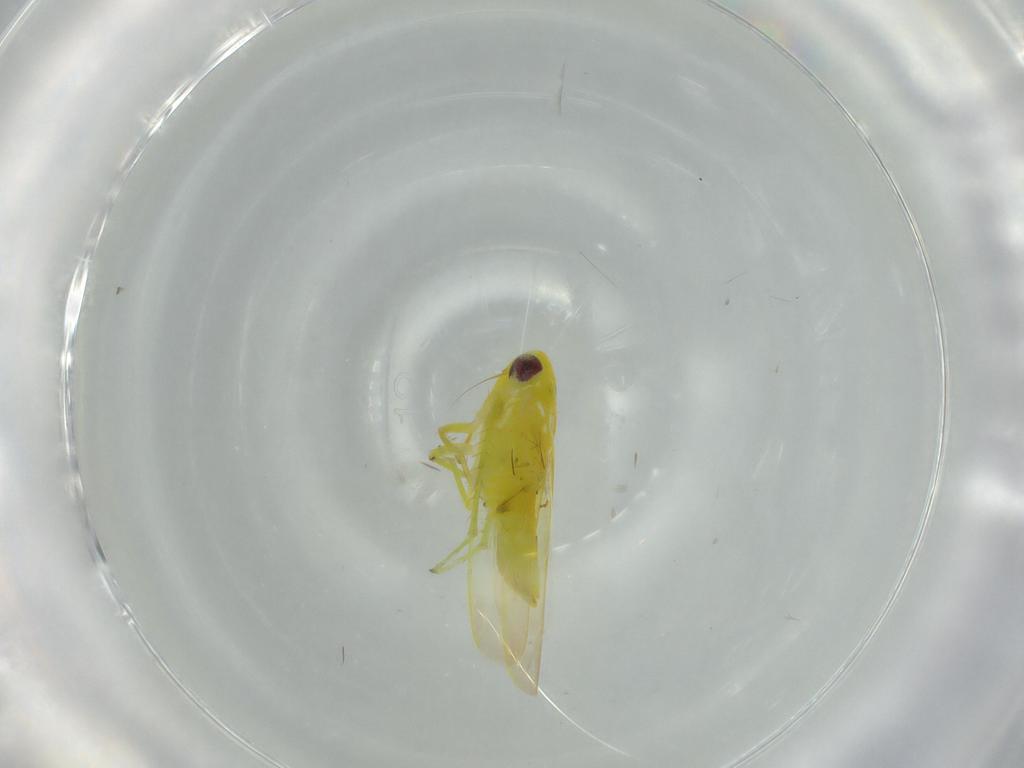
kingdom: Animalia
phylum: Arthropoda
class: Insecta
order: Hemiptera
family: Cicadellidae
